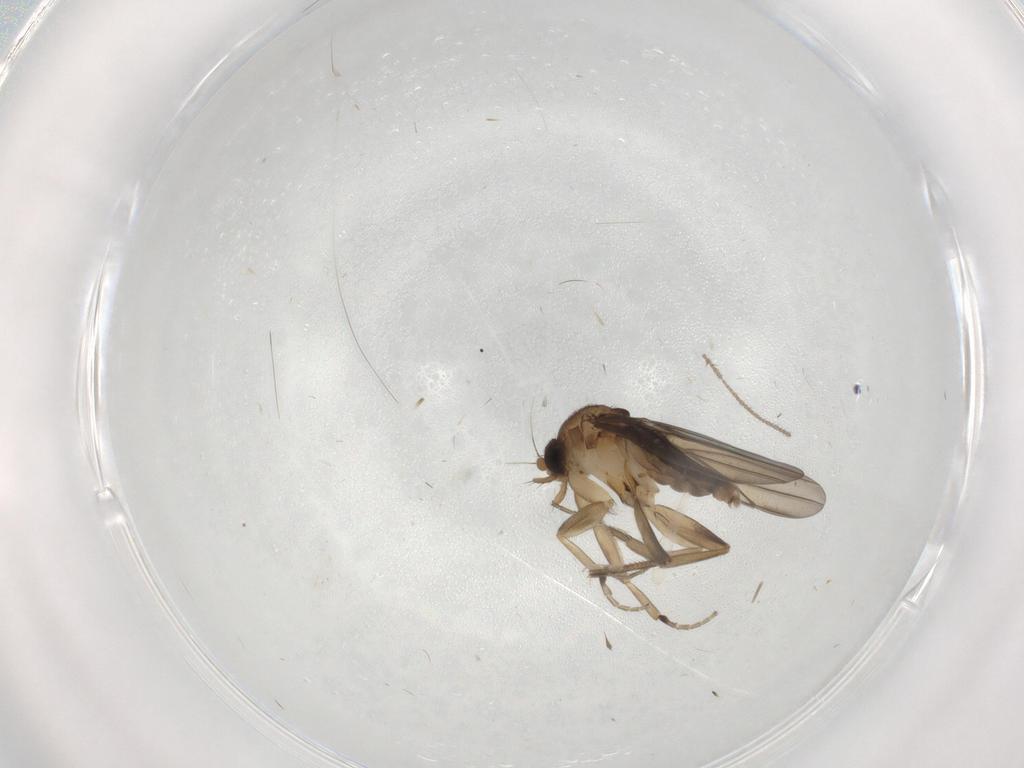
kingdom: Animalia
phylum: Arthropoda
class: Insecta
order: Diptera
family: Phoridae
